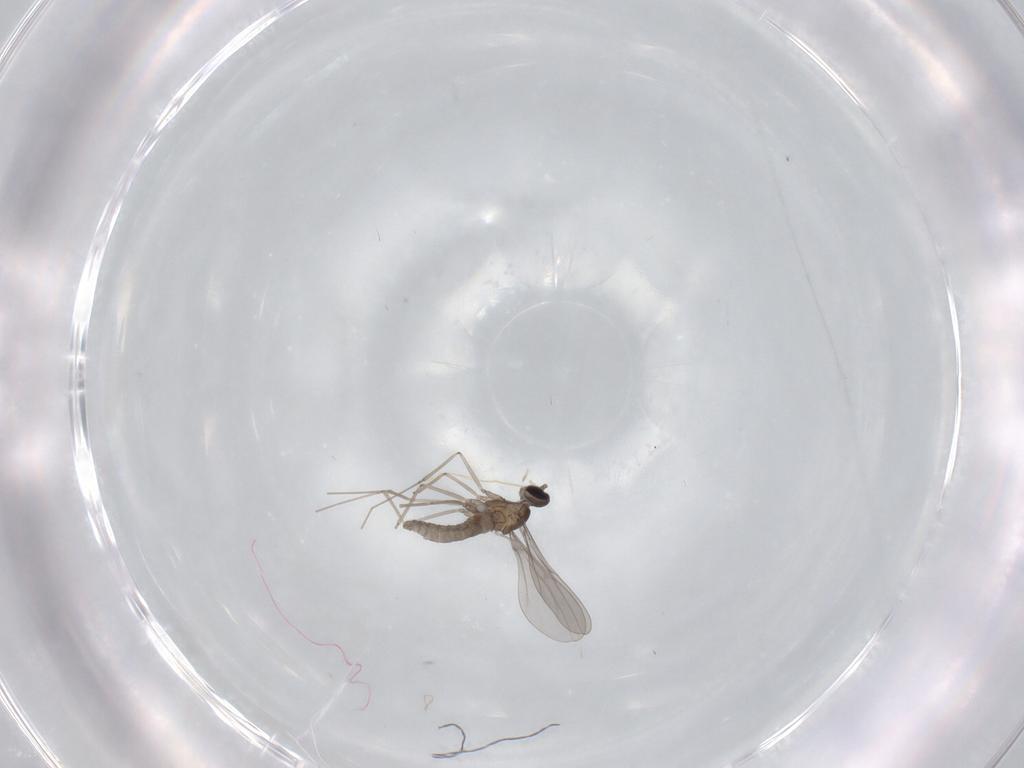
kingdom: Animalia
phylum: Arthropoda
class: Insecta
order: Diptera
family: Cecidomyiidae
